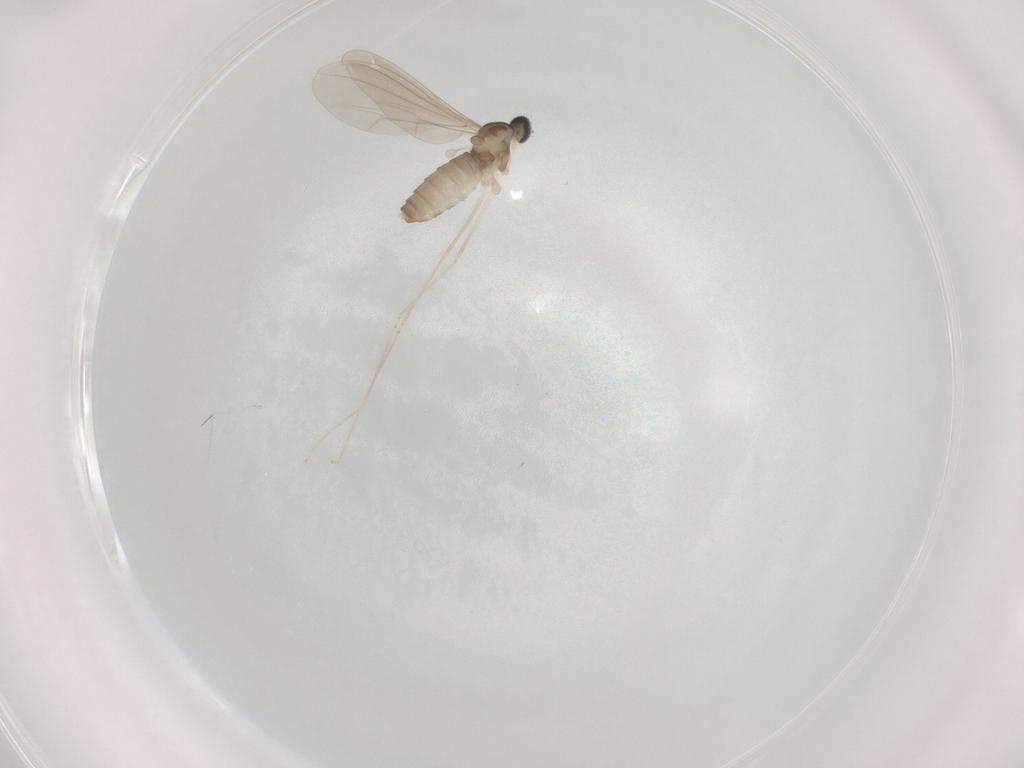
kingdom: Animalia
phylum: Arthropoda
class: Insecta
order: Diptera
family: Cecidomyiidae
